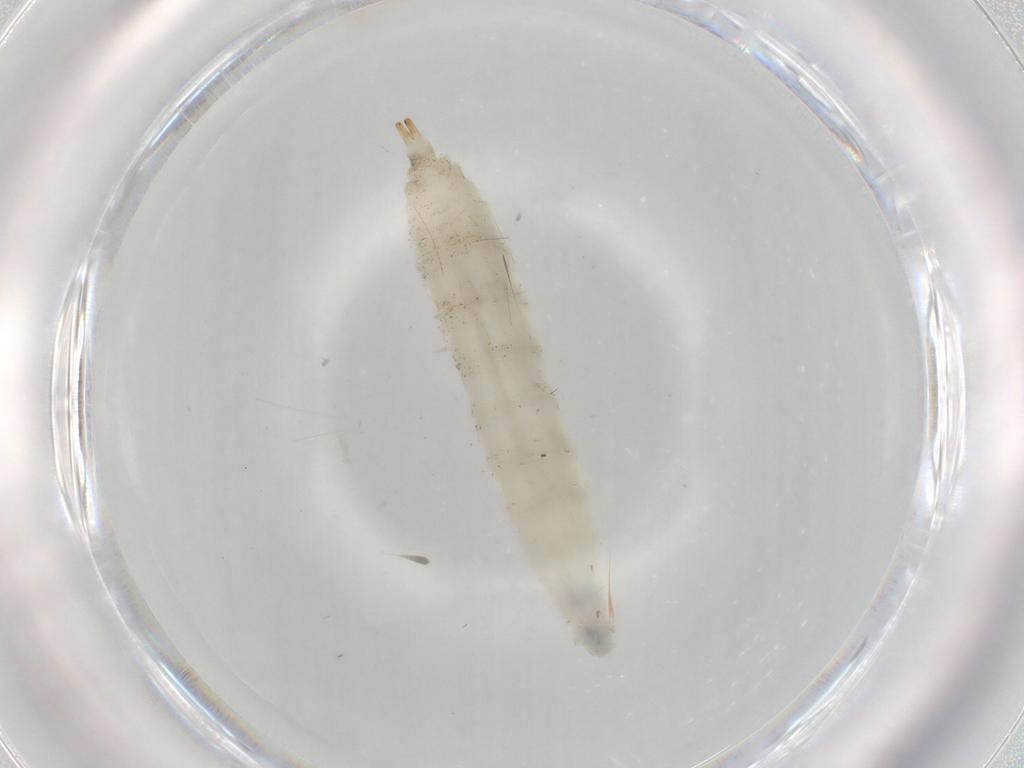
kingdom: Animalia
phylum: Arthropoda
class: Insecta
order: Diptera
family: Drosophilidae
